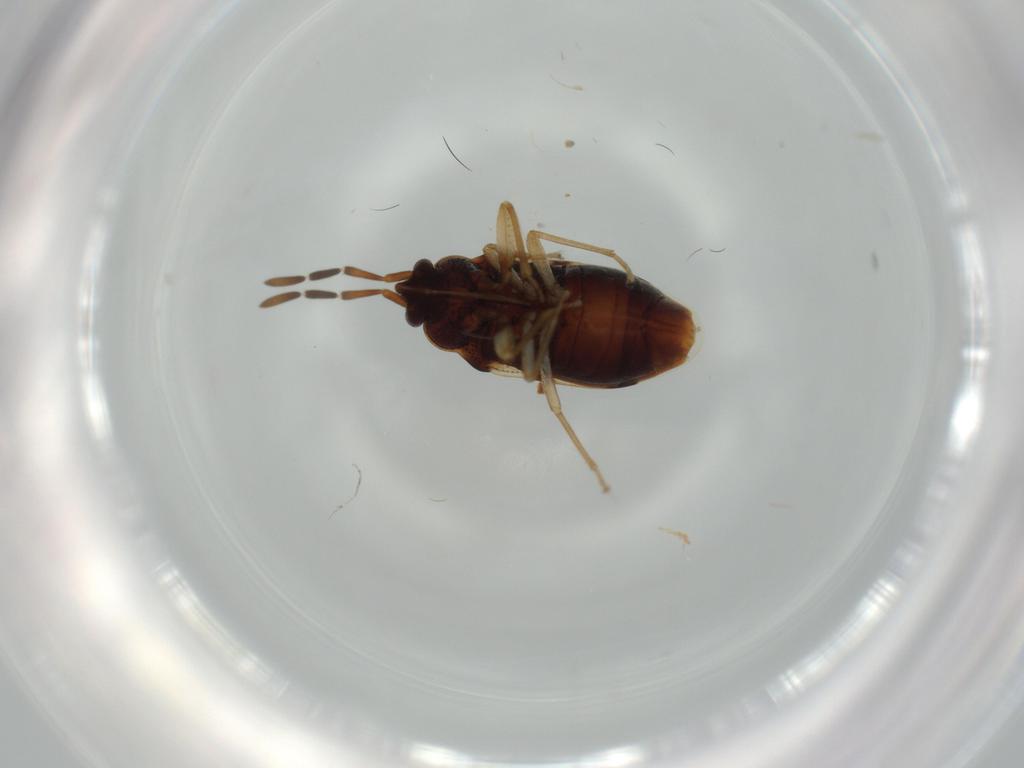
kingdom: Animalia
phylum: Arthropoda
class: Insecta
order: Hemiptera
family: Rhyparochromidae
